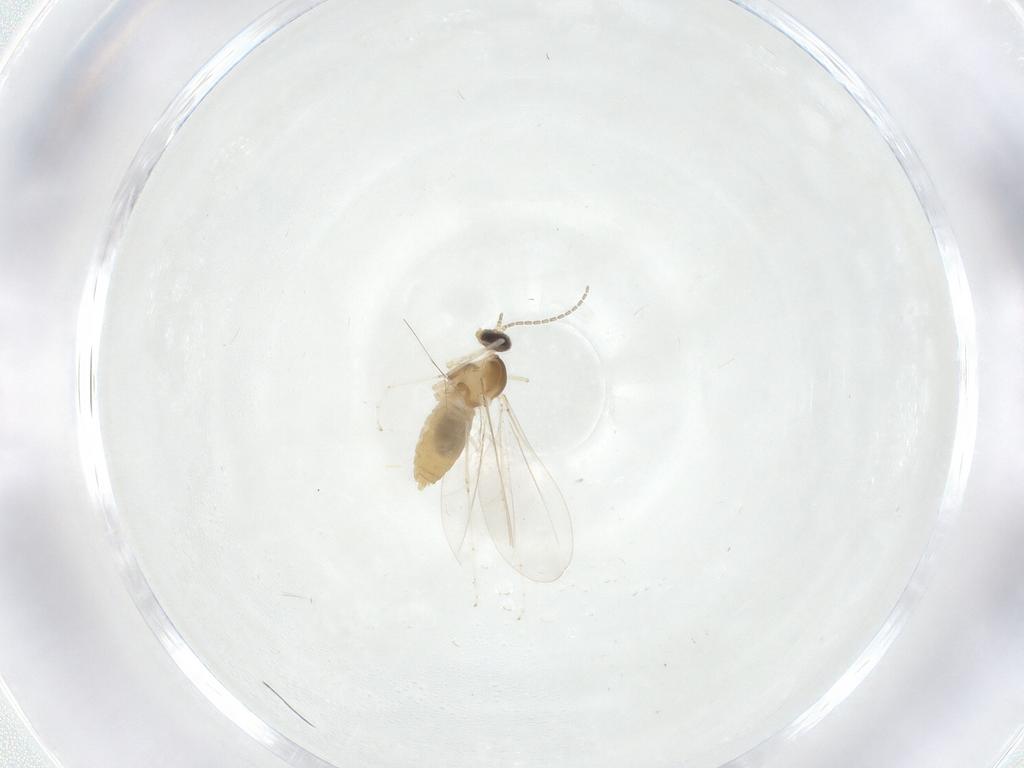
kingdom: Animalia
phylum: Arthropoda
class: Insecta
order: Diptera
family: Cecidomyiidae
